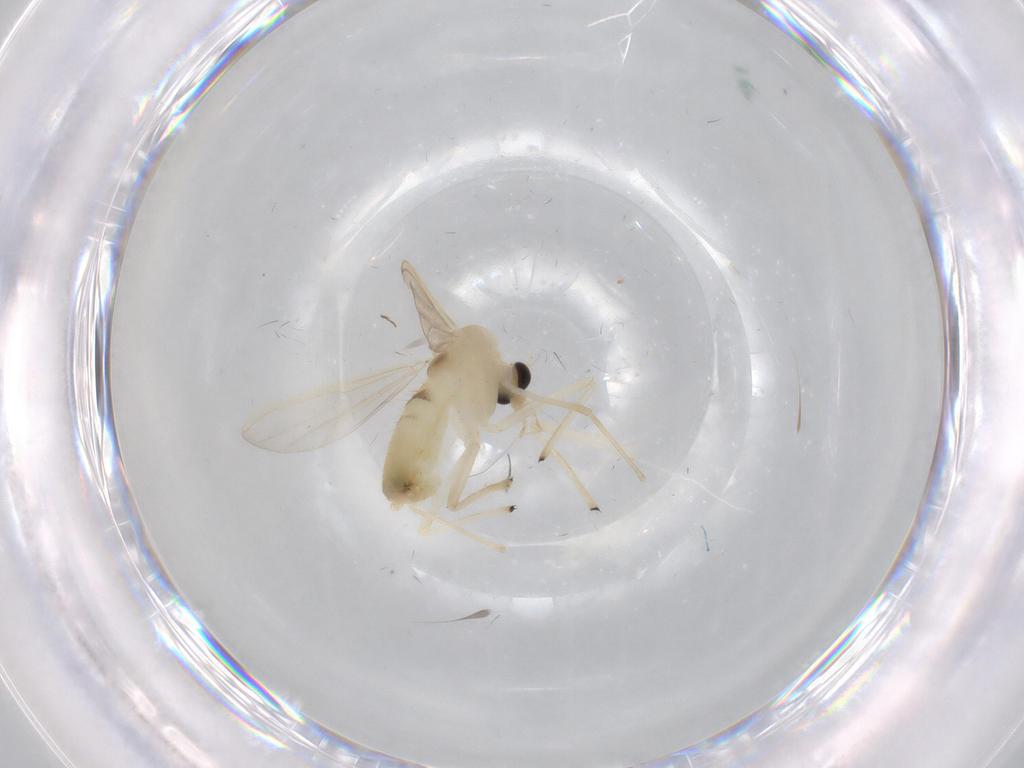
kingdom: Animalia
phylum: Arthropoda
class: Insecta
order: Diptera
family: Chironomidae
